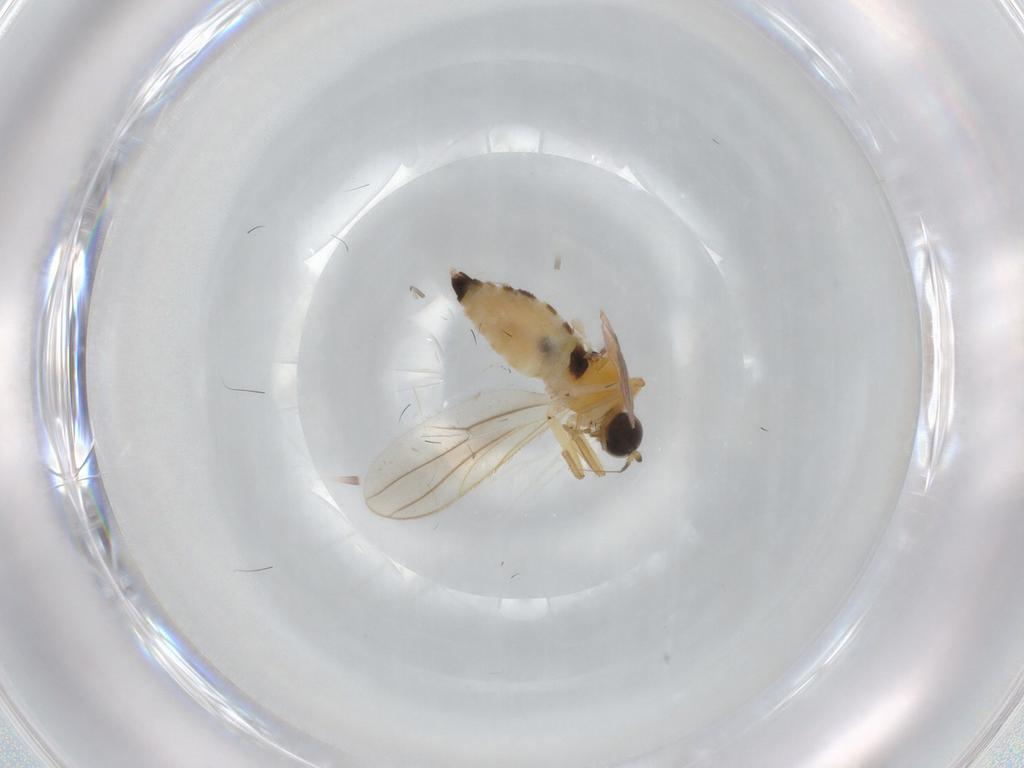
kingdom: Animalia
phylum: Arthropoda
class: Insecta
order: Diptera
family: Hybotidae
